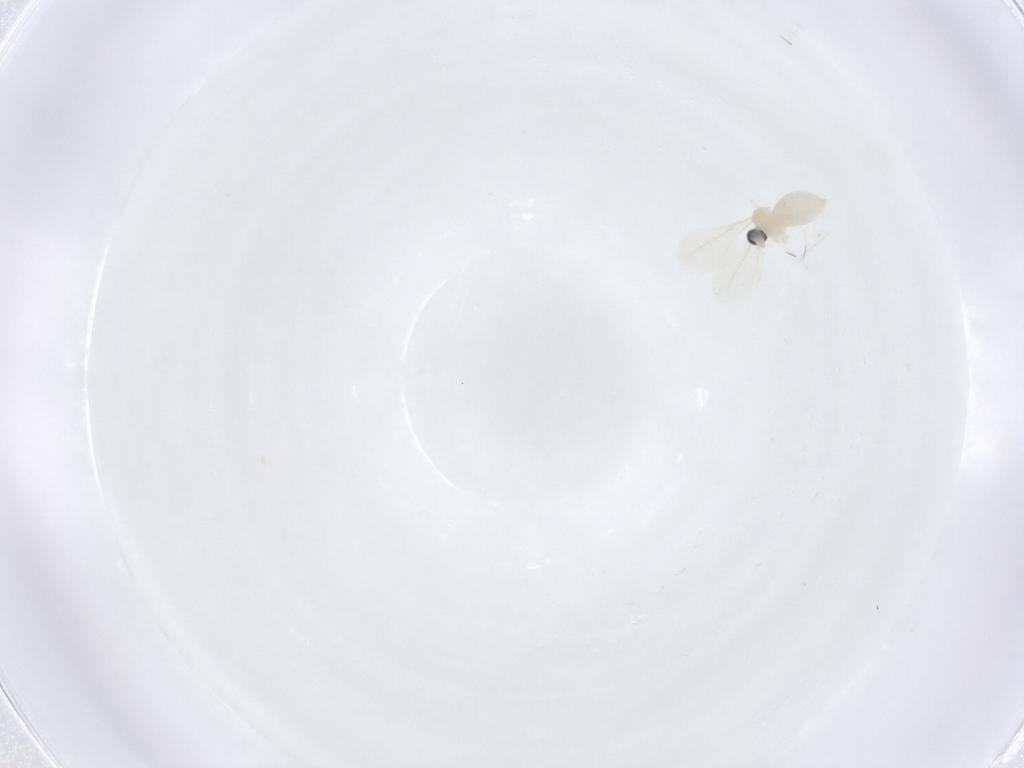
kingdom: Animalia
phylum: Arthropoda
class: Insecta
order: Diptera
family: Cecidomyiidae
